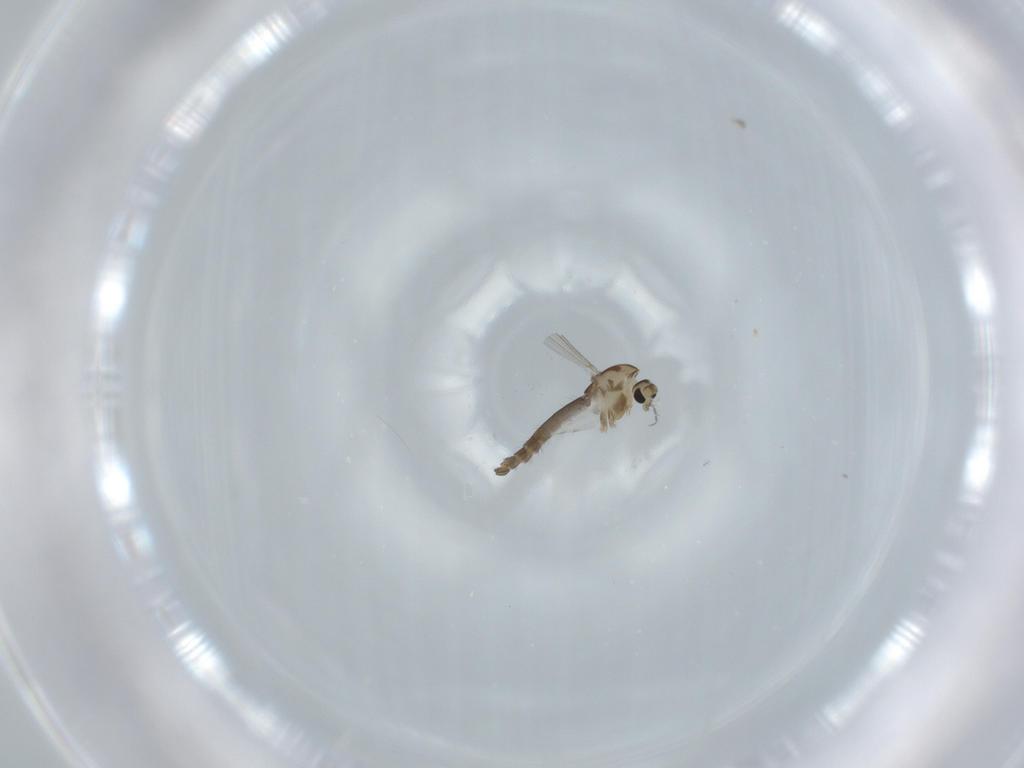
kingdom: Animalia
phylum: Arthropoda
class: Insecta
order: Diptera
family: Chironomidae
